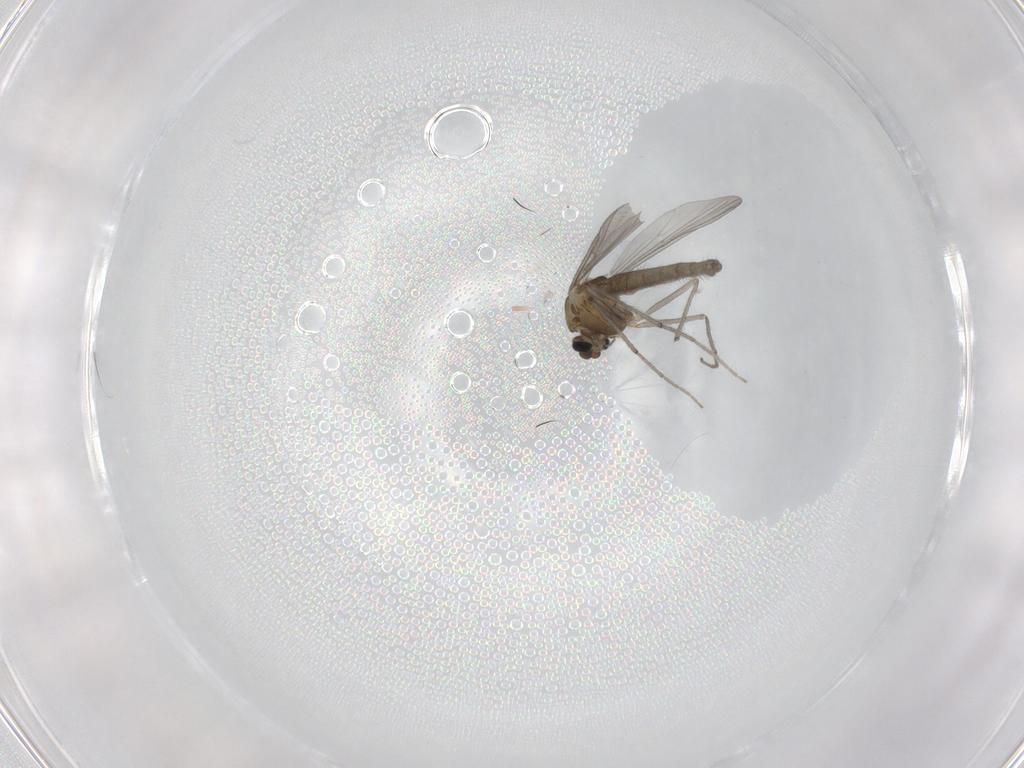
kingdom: Animalia
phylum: Arthropoda
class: Insecta
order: Diptera
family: Chironomidae
